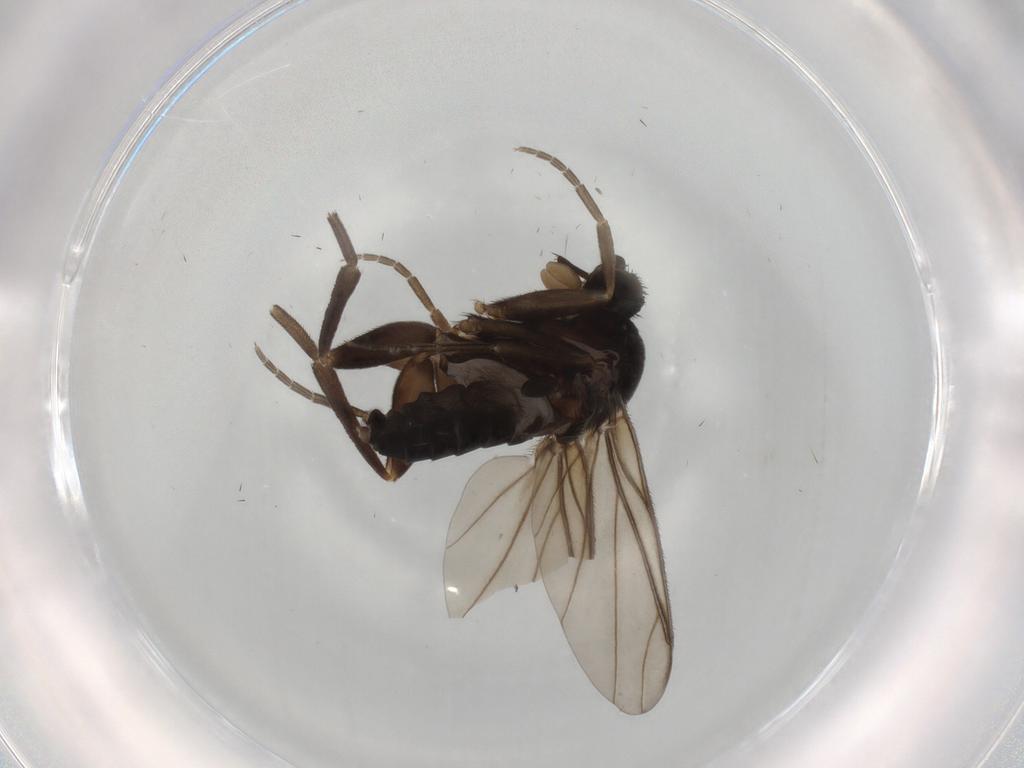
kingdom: Animalia
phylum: Arthropoda
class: Insecta
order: Diptera
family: Phoridae
